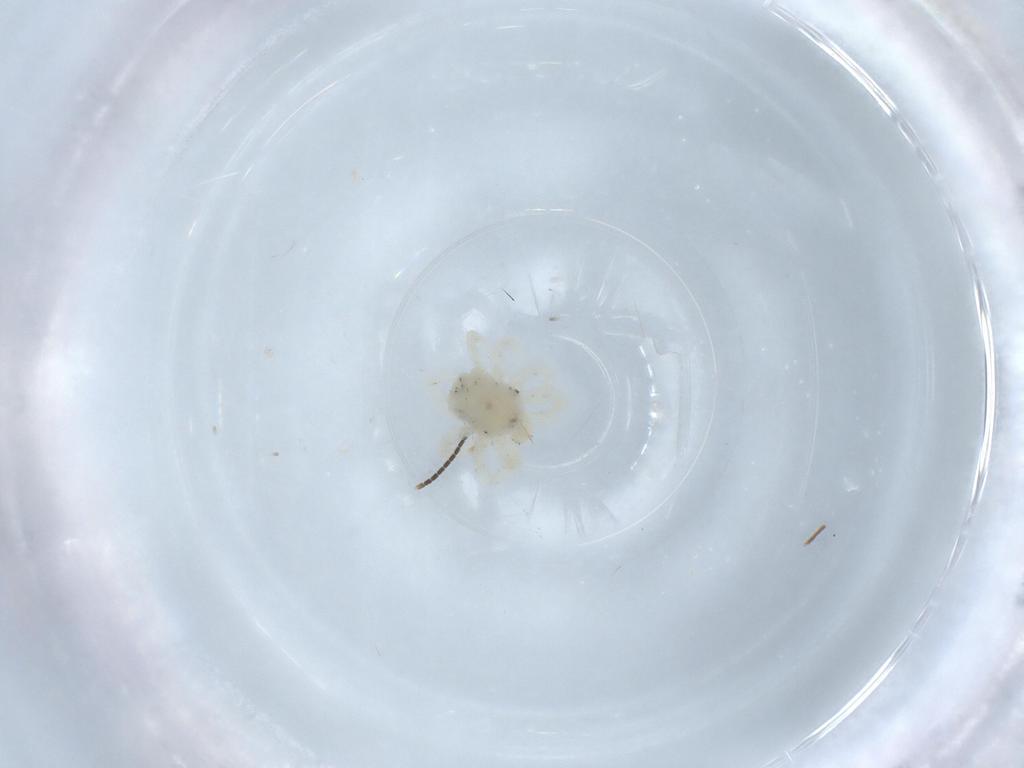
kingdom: Animalia
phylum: Arthropoda
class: Arachnida
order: Trombidiformes
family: Anystidae
